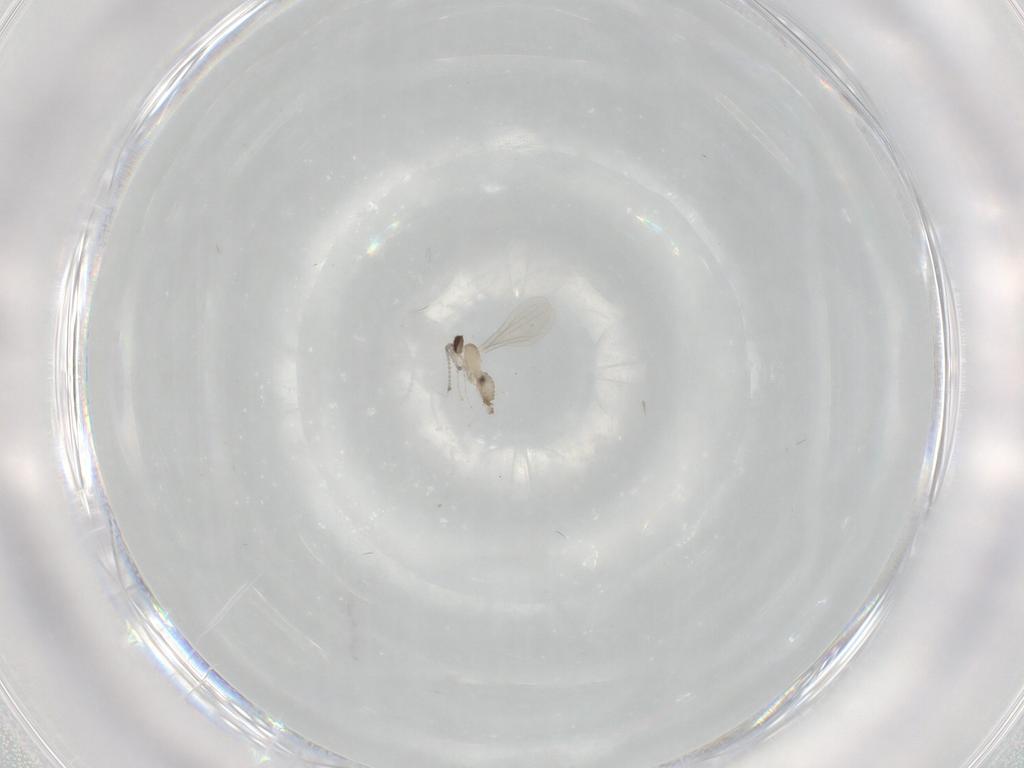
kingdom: Animalia
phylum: Arthropoda
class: Insecta
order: Diptera
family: Cecidomyiidae
